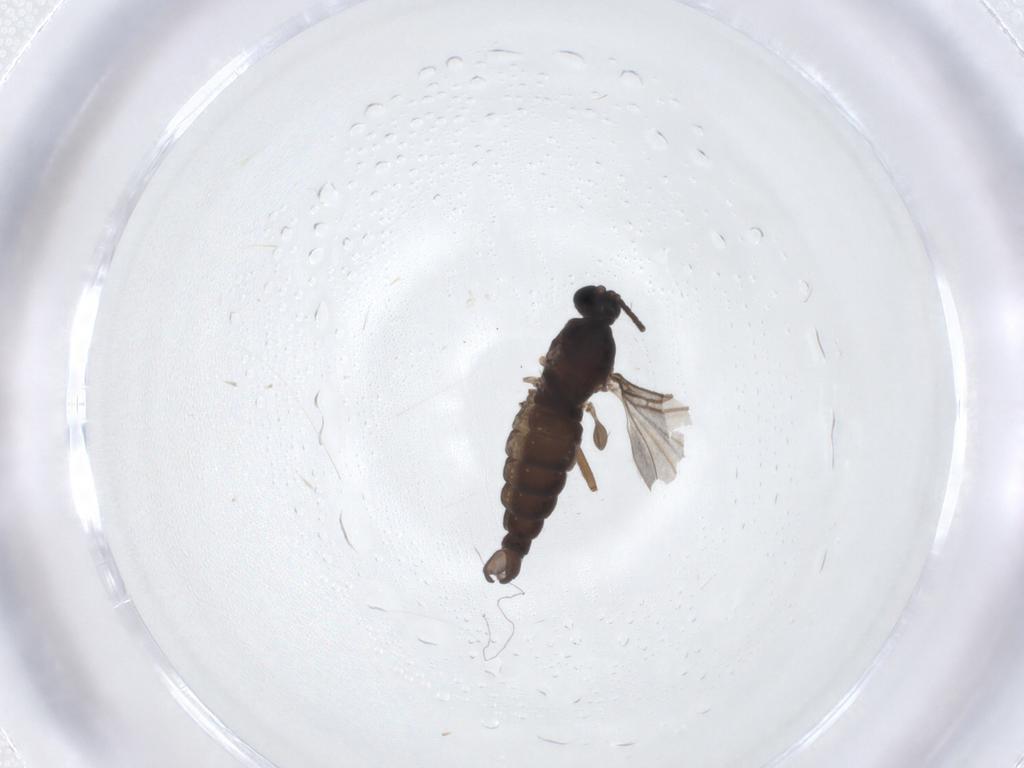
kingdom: Animalia
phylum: Arthropoda
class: Insecta
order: Diptera
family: Sciaridae
